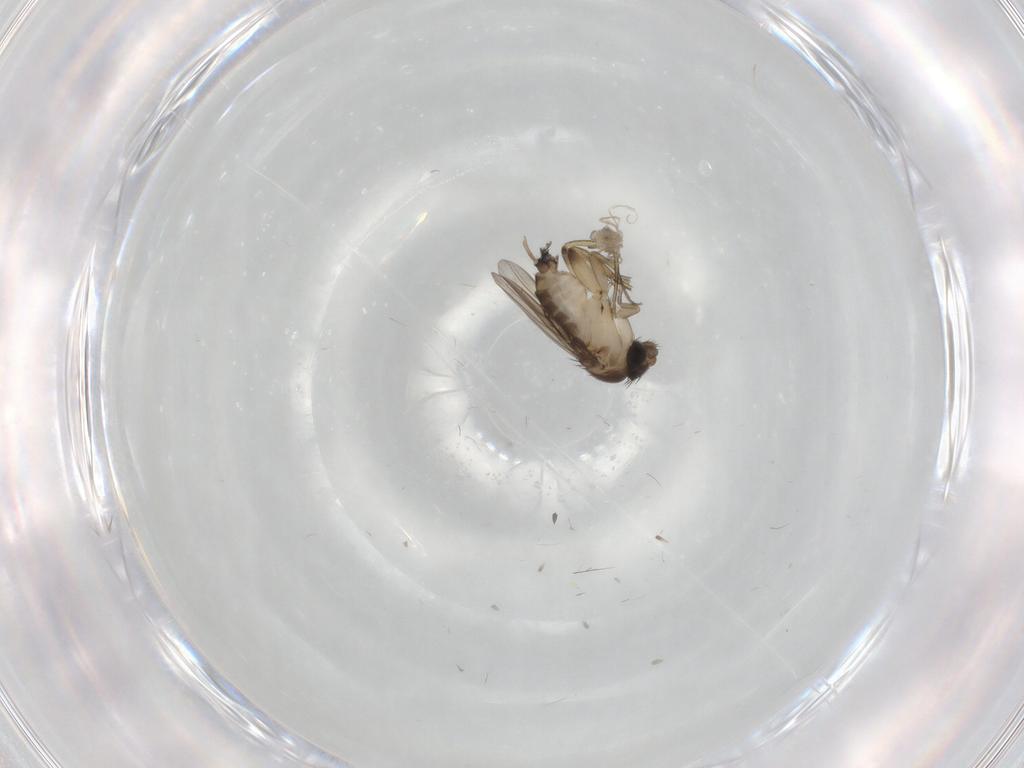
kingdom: Animalia
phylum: Arthropoda
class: Insecta
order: Diptera
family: Cecidomyiidae
